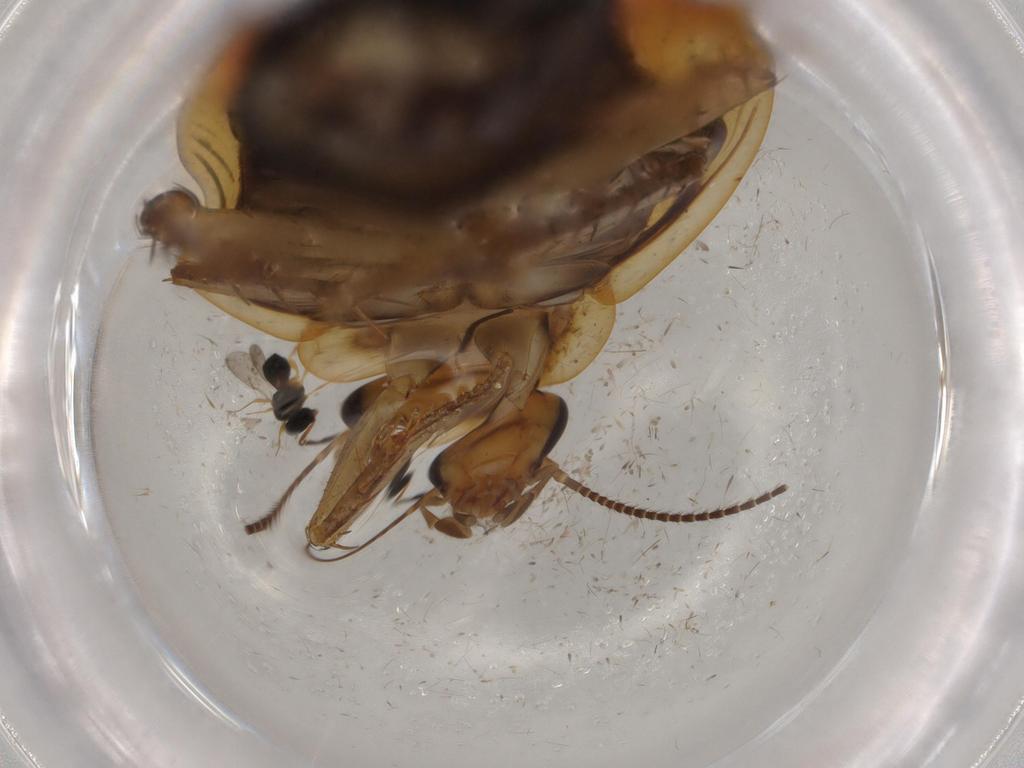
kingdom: Animalia
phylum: Arthropoda
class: Insecta
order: Blattodea
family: Ectobiidae
